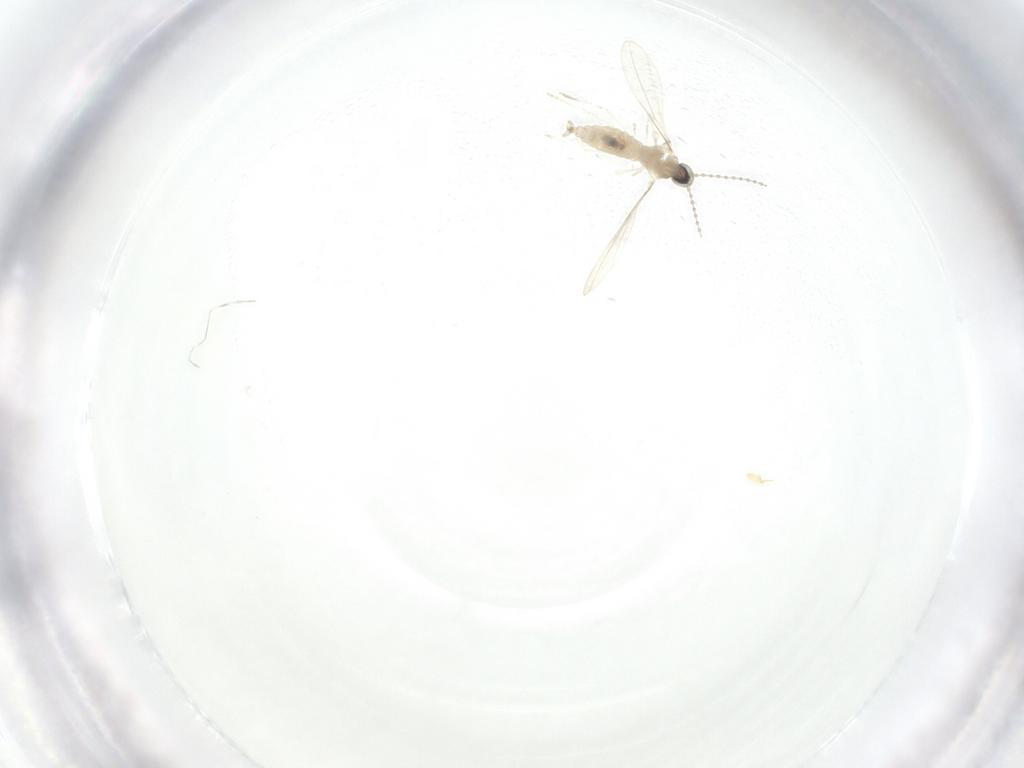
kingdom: Animalia
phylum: Arthropoda
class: Insecta
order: Diptera
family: Cecidomyiidae
